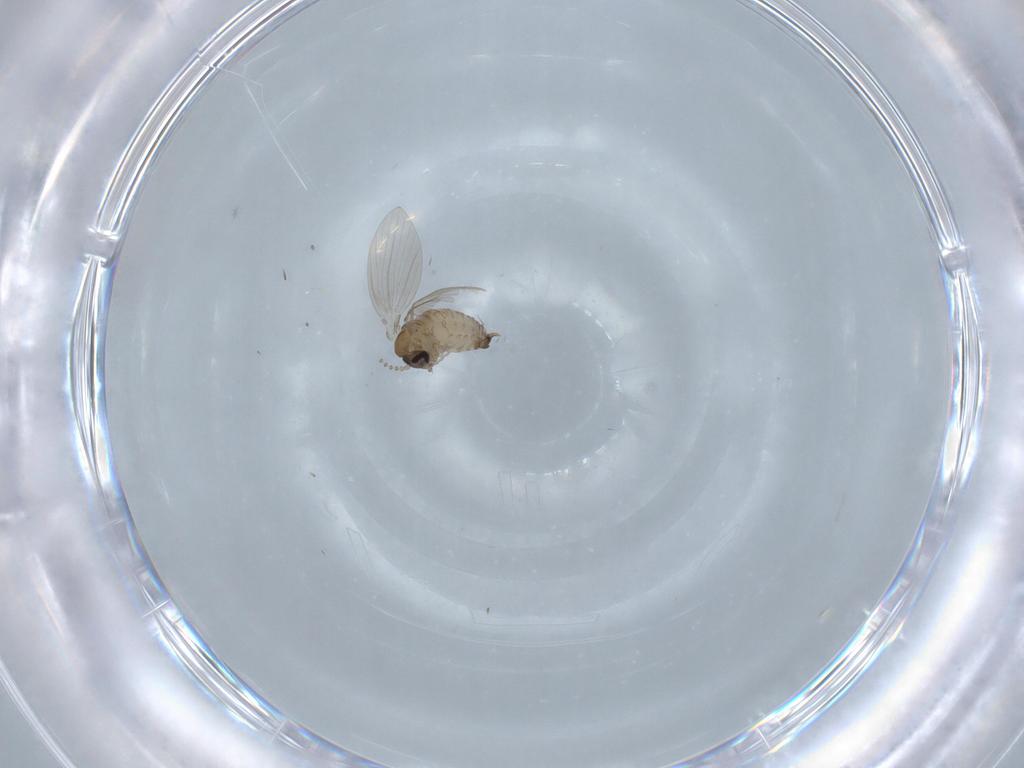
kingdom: Animalia
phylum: Arthropoda
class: Insecta
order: Diptera
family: Psychodidae
